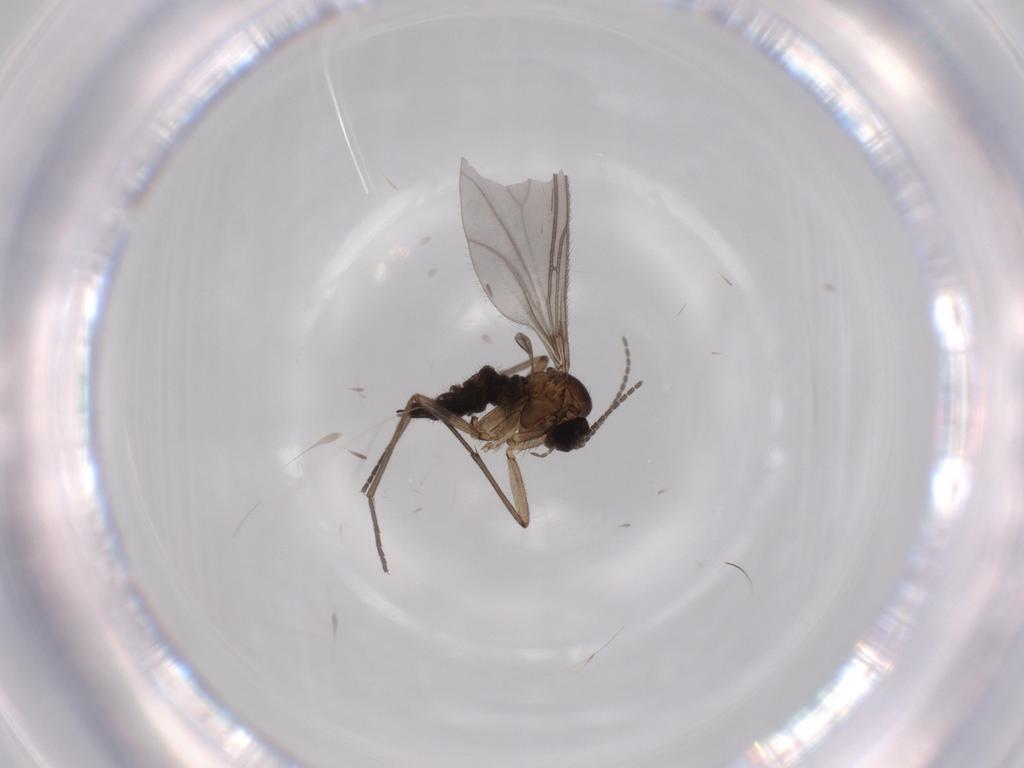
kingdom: Animalia
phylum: Arthropoda
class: Insecta
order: Diptera
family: Sciaridae
